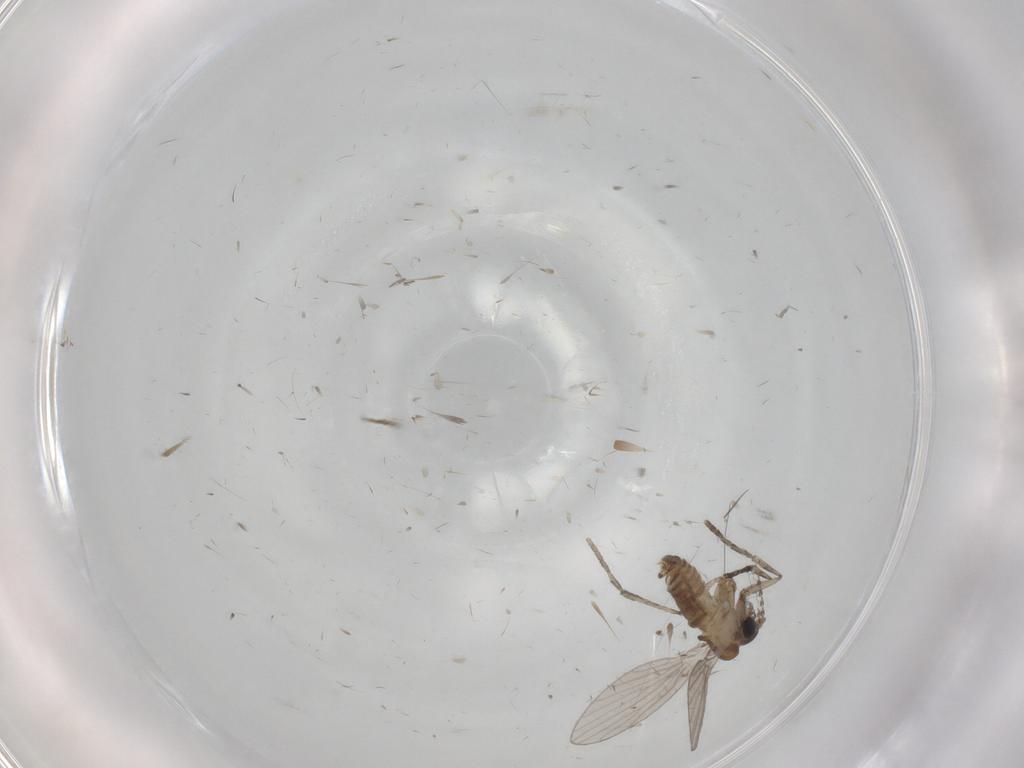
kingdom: Animalia
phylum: Arthropoda
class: Insecta
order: Diptera
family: Psychodidae
